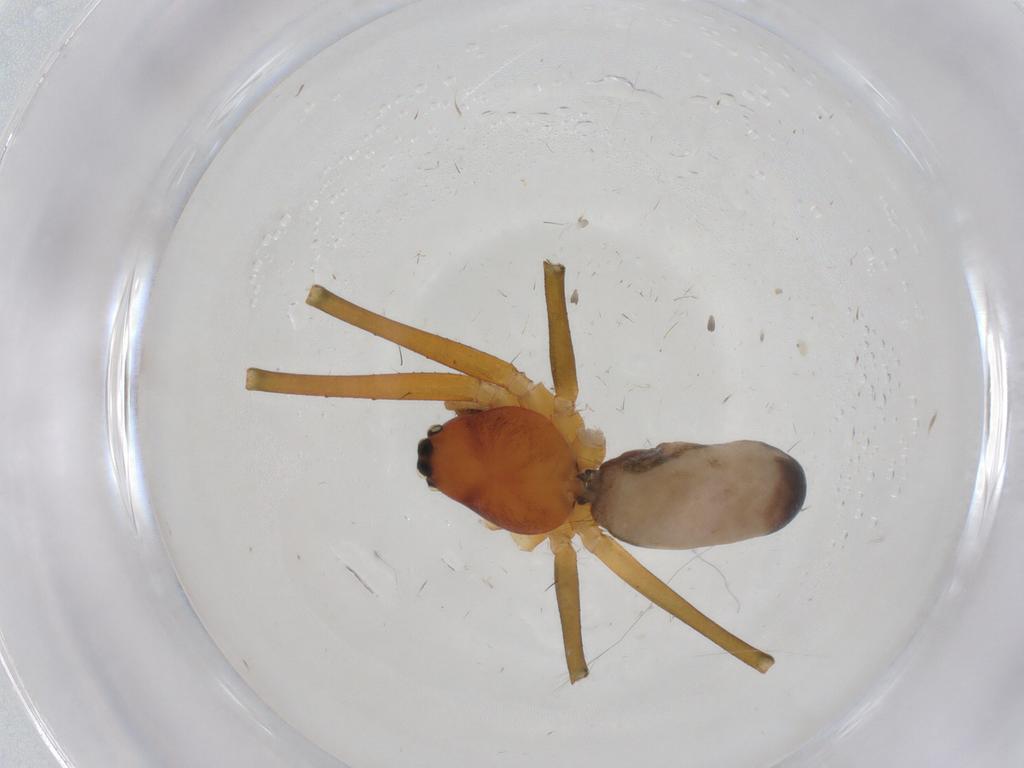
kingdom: Animalia
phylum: Arthropoda
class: Arachnida
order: Araneae
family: Linyphiidae
